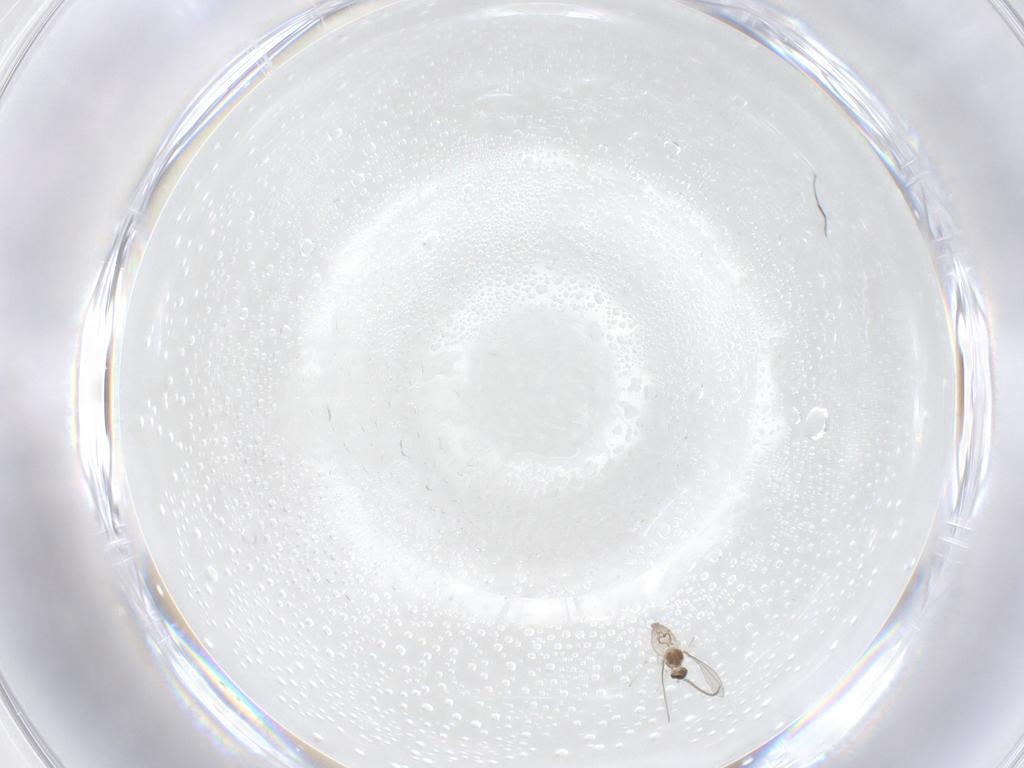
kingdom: Animalia
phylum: Arthropoda
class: Insecta
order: Diptera
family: Cecidomyiidae
